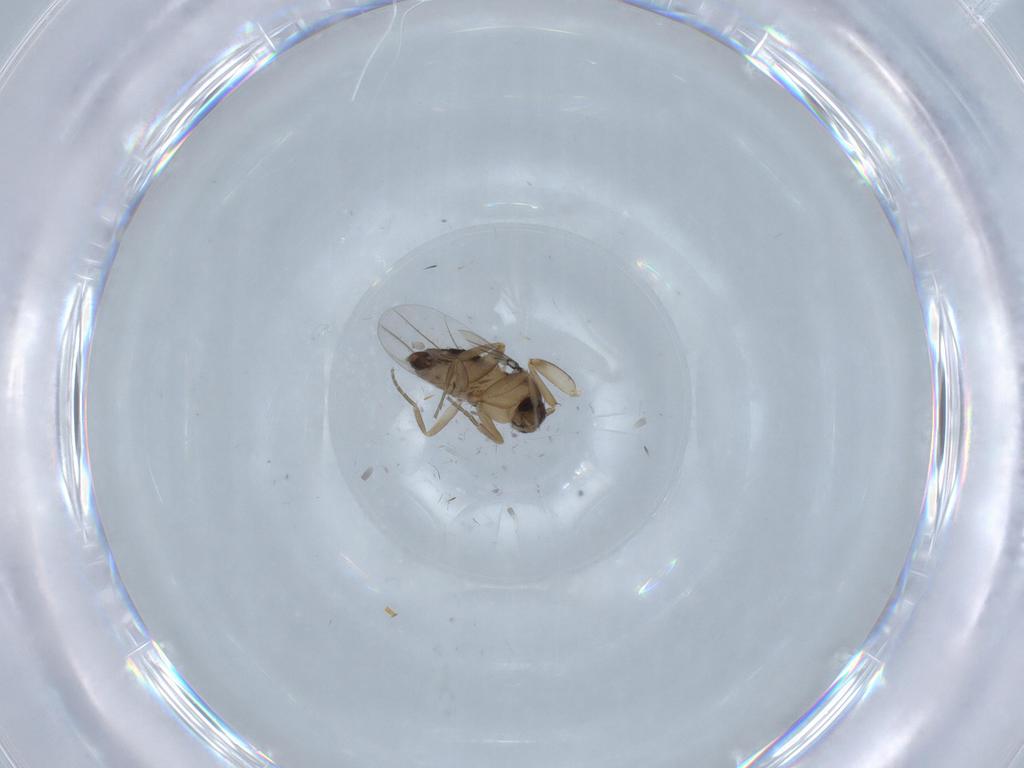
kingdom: Animalia
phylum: Arthropoda
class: Insecta
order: Diptera
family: Phoridae
